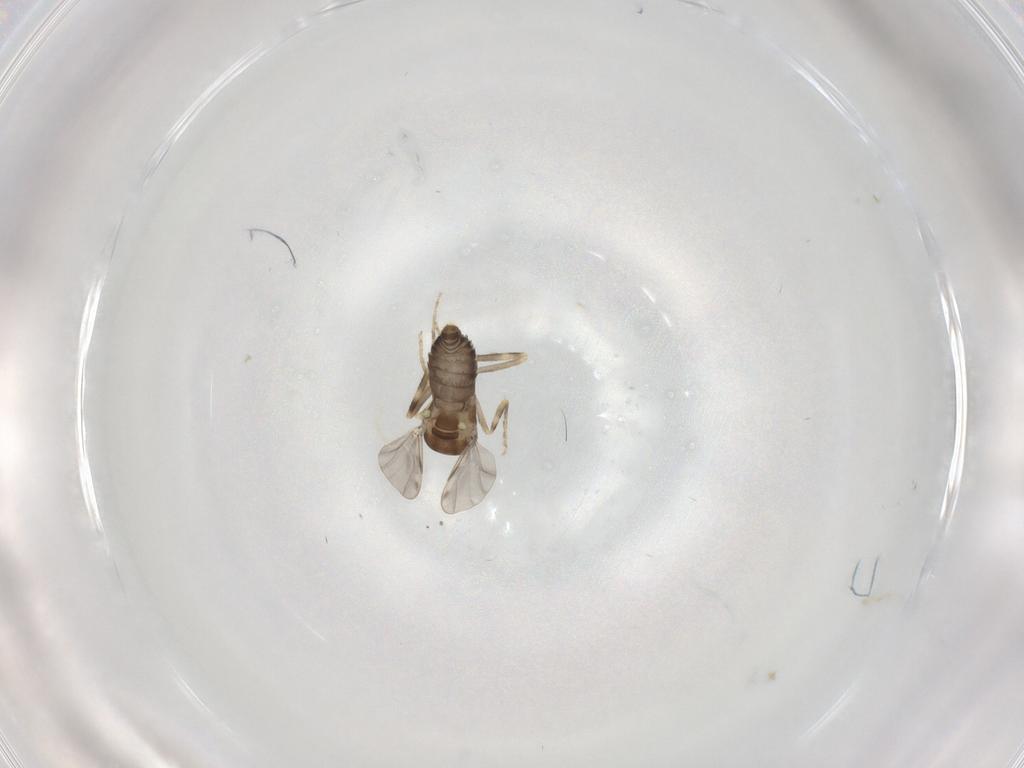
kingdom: Animalia
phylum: Arthropoda
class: Insecta
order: Diptera
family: Ceratopogonidae
